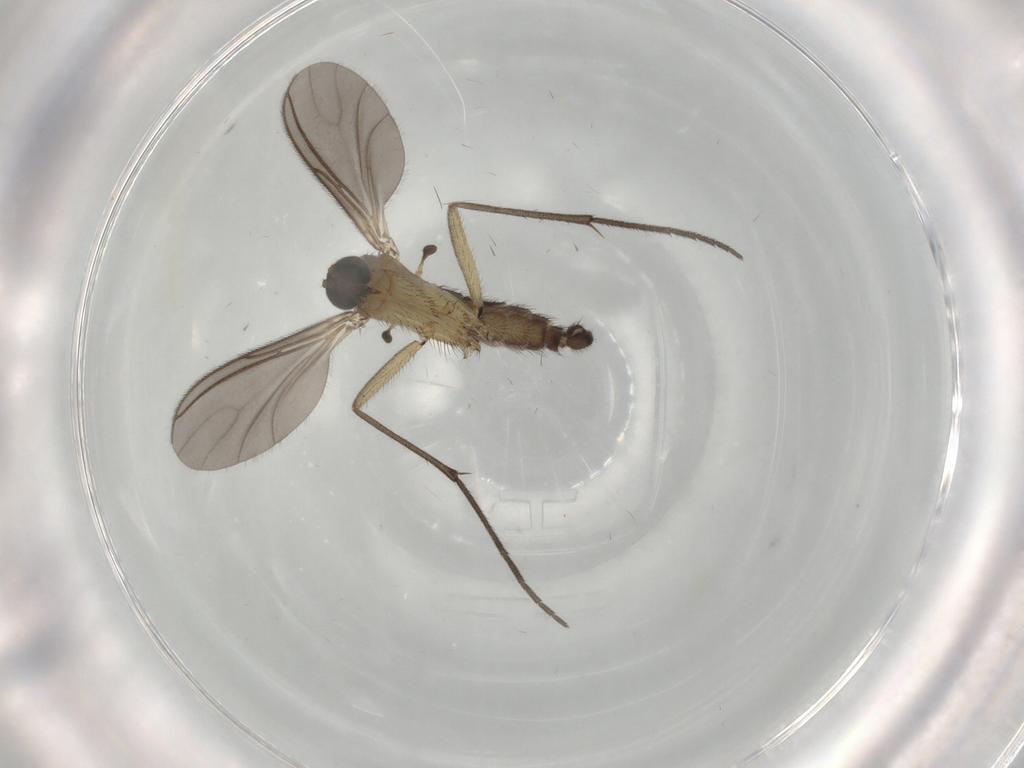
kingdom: Animalia
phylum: Arthropoda
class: Insecta
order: Diptera
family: Sciaridae
